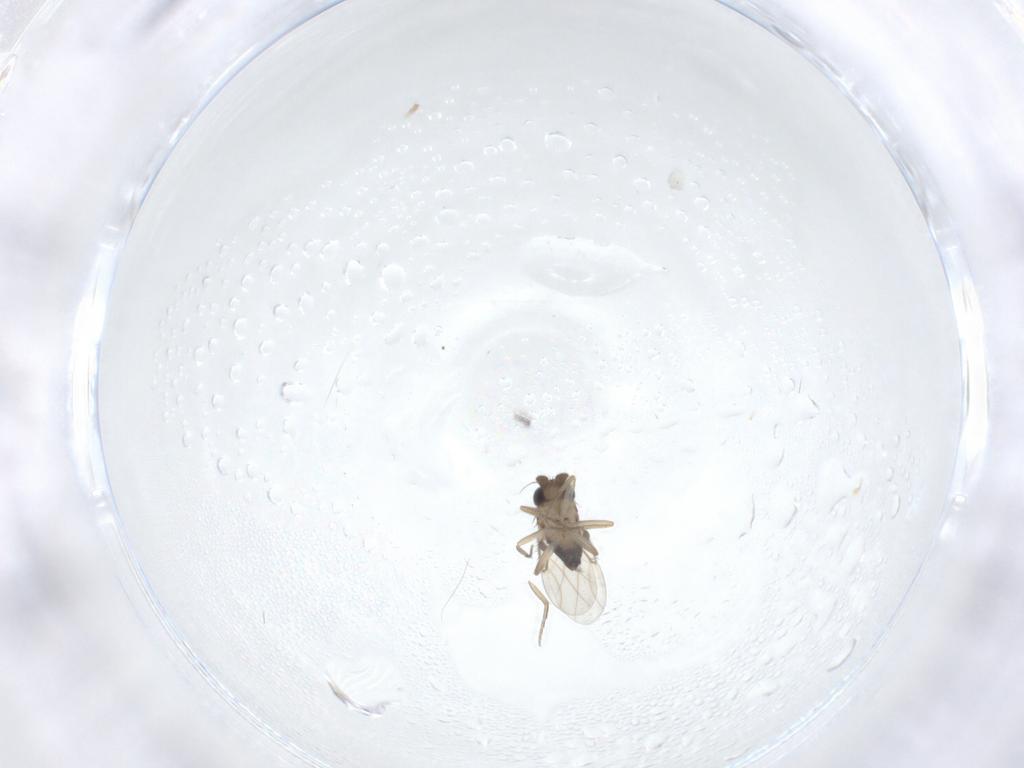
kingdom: Animalia
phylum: Arthropoda
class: Insecta
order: Diptera
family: Phoridae
